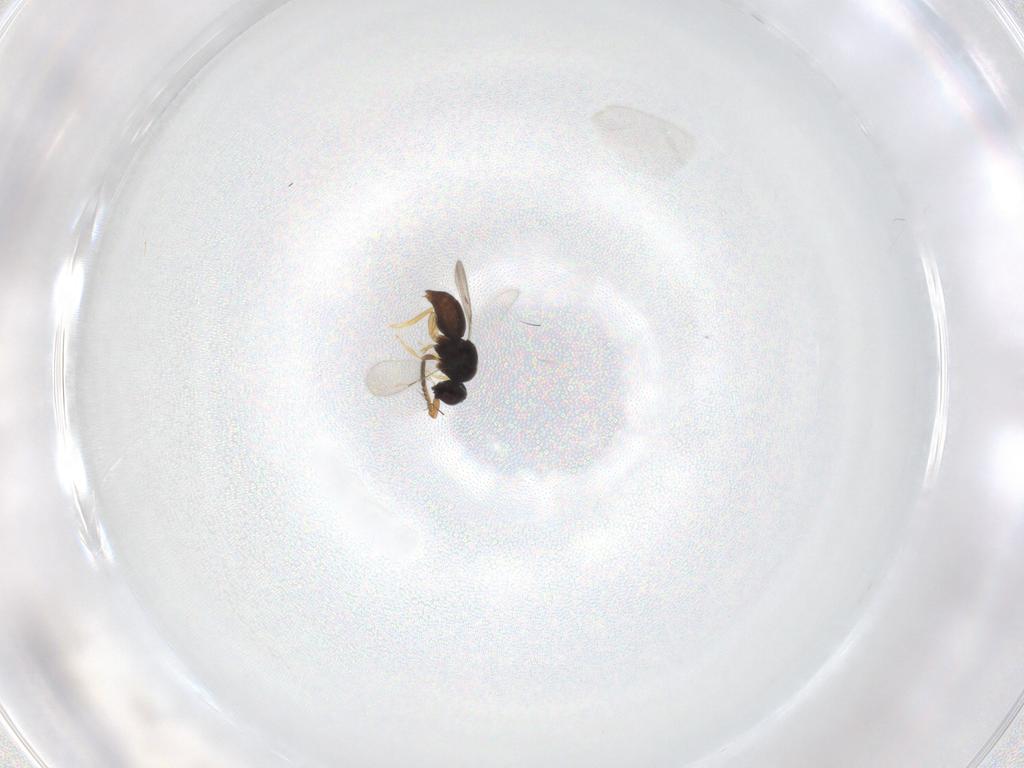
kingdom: Animalia
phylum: Arthropoda
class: Insecta
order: Hymenoptera
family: Ceraphronidae
